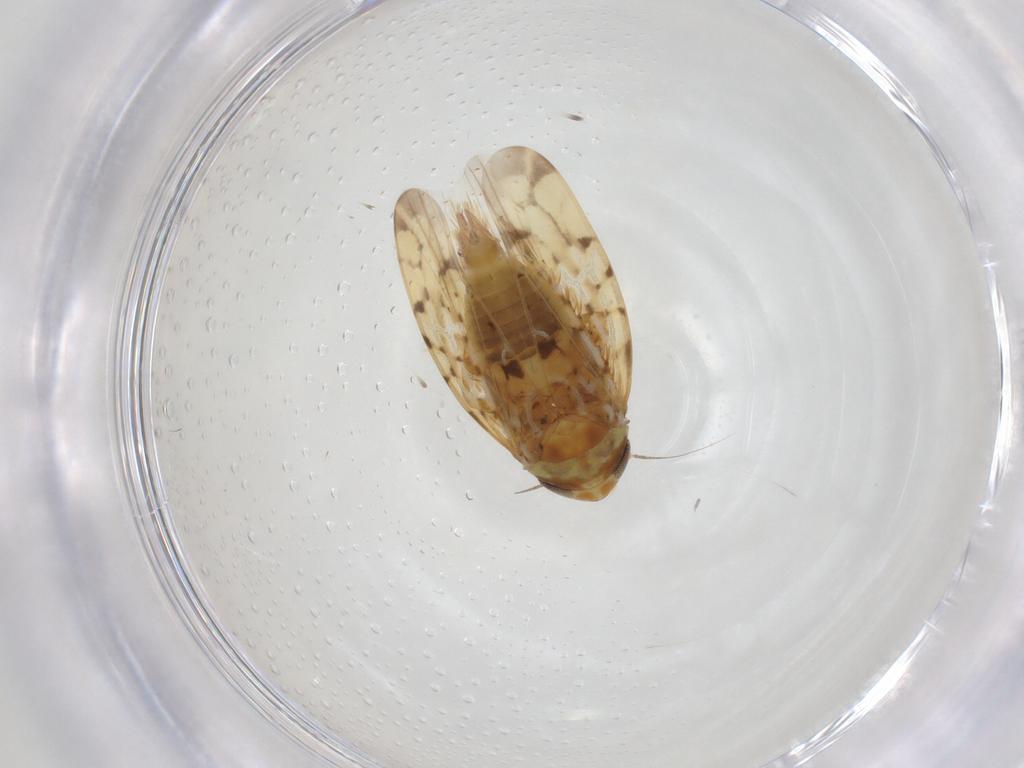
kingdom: Animalia
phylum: Arthropoda
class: Insecta
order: Hemiptera
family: Cicadellidae
